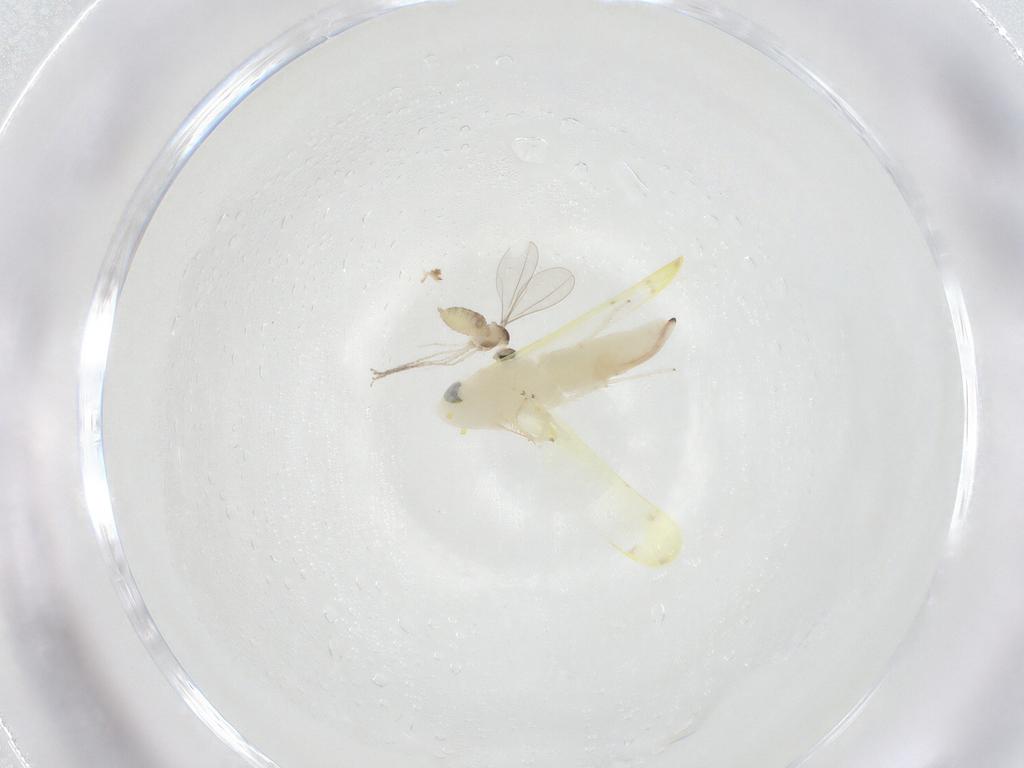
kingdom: Animalia
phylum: Arthropoda
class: Insecta
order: Diptera
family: Cecidomyiidae
